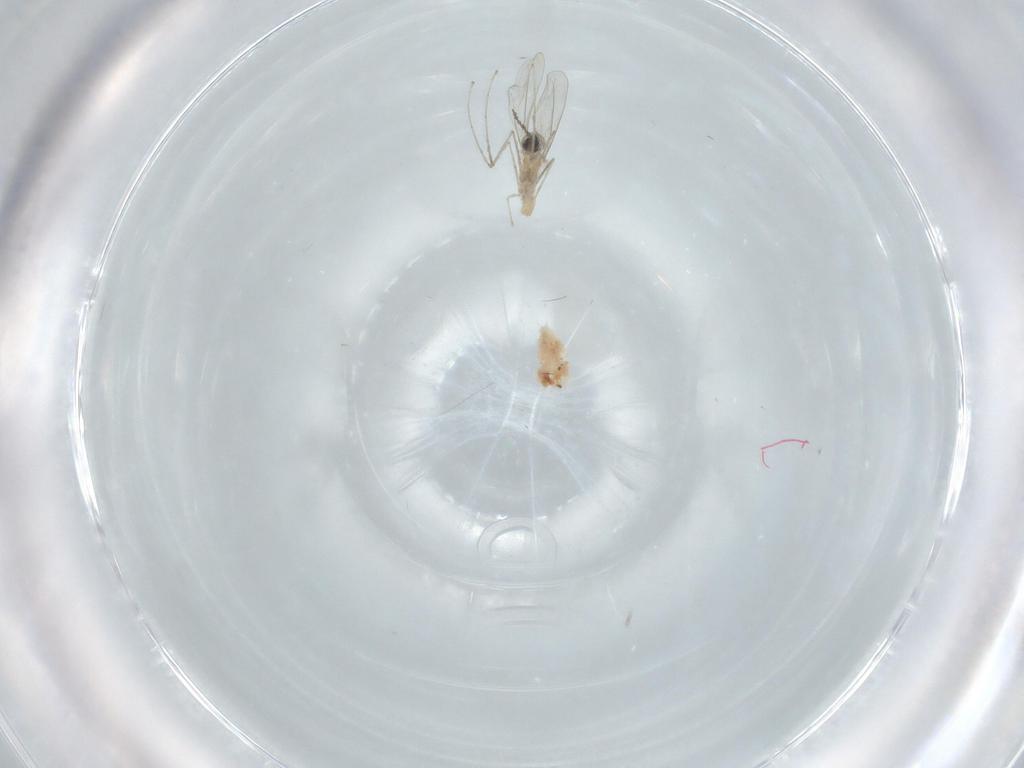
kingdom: Animalia
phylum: Arthropoda
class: Insecta
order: Diptera
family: Cecidomyiidae
